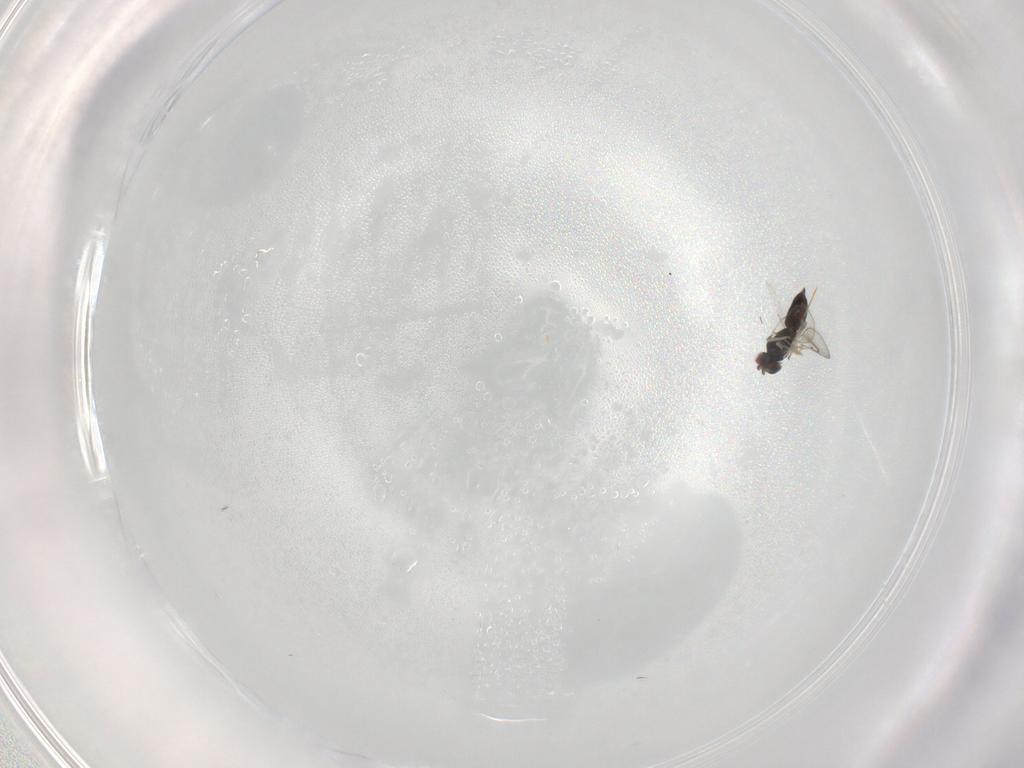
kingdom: Animalia
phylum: Arthropoda
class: Insecta
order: Hymenoptera
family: Eulophidae
